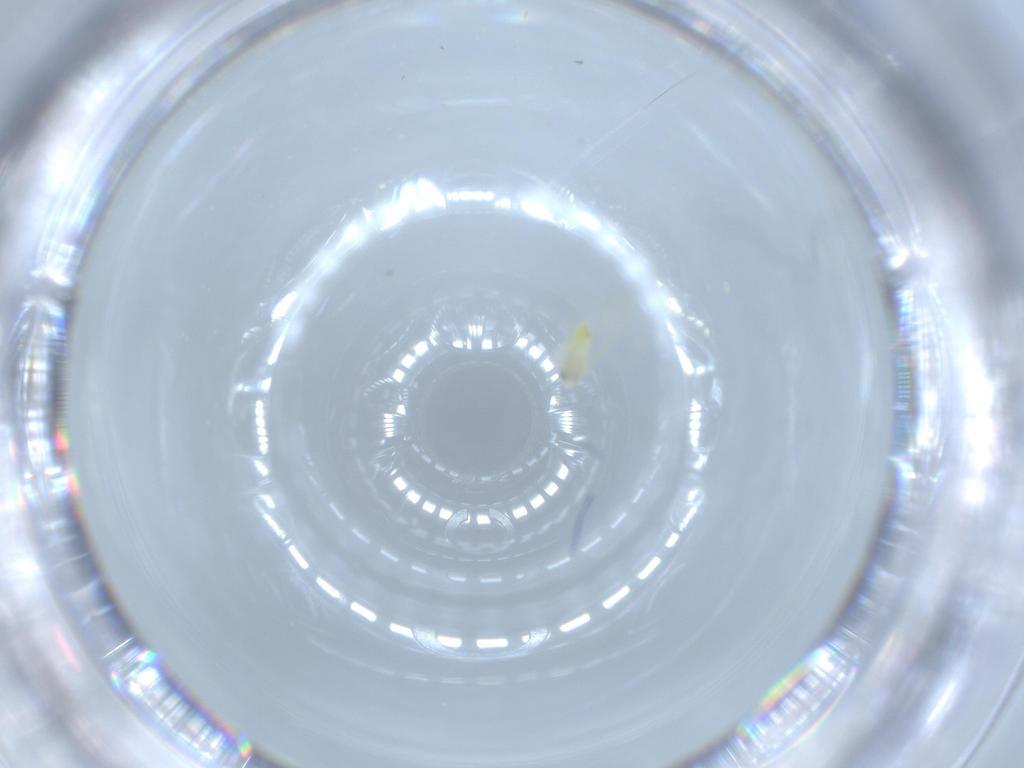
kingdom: Animalia
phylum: Arthropoda
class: Insecta
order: Hemiptera
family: Aleyrodidae
